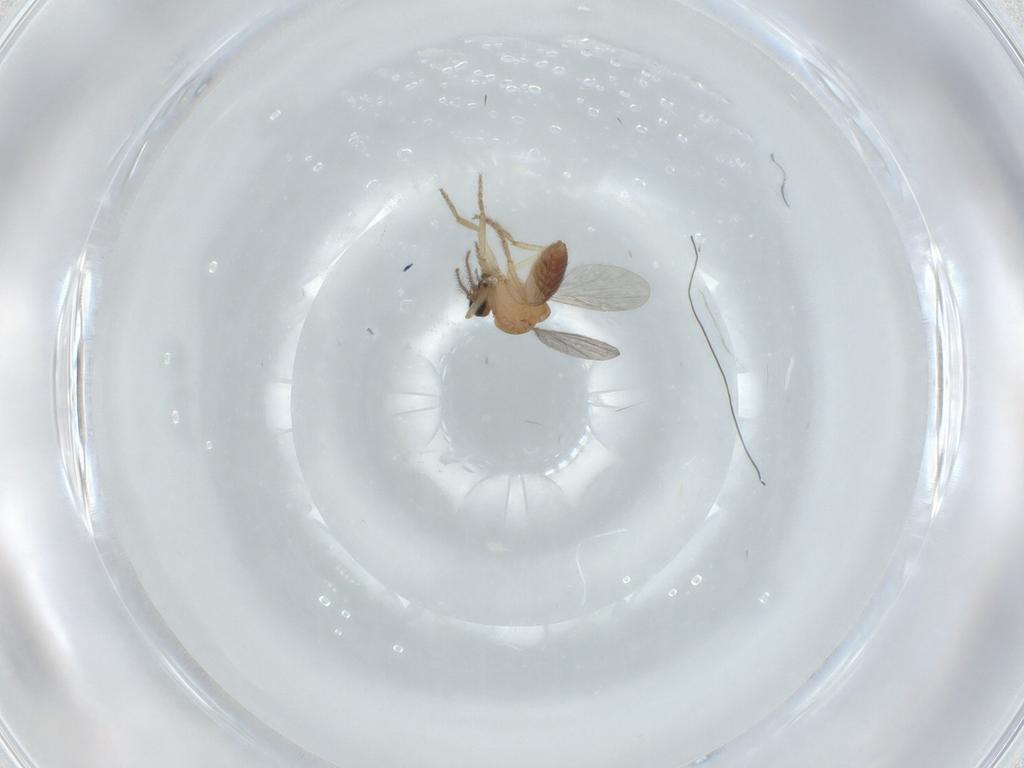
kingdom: Animalia
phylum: Arthropoda
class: Insecta
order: Diptera
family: Ceratopogonidae
